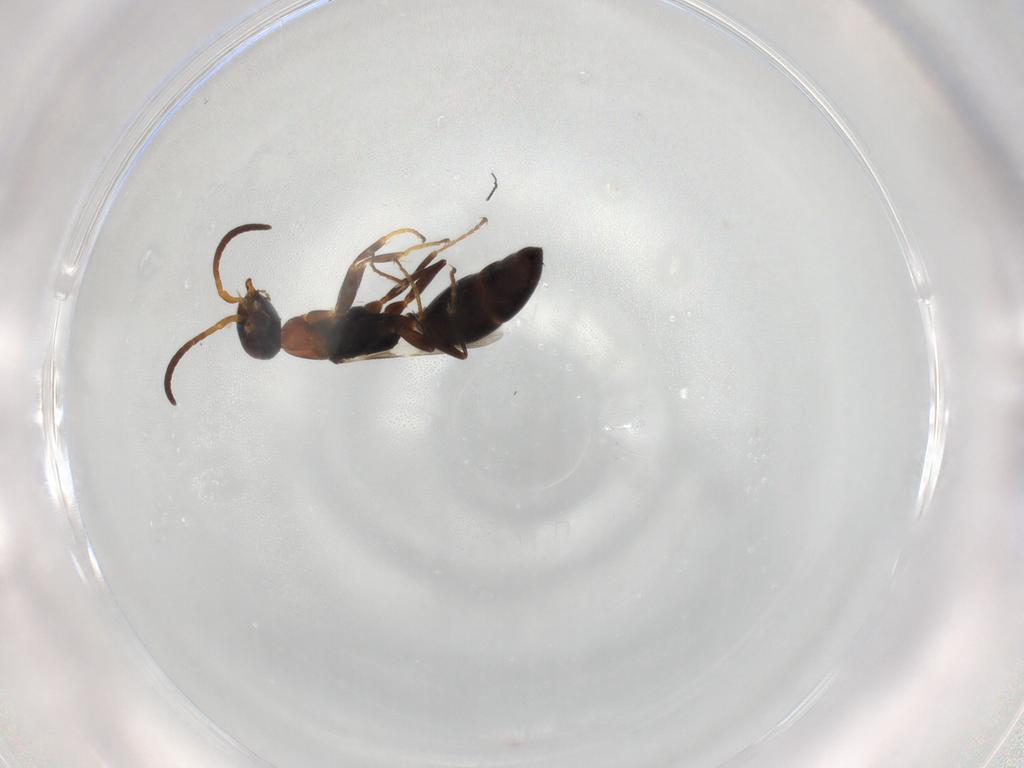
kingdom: Animalia
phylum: Arthropoda
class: Insecta
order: Hymenoptera
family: Bethylidae
